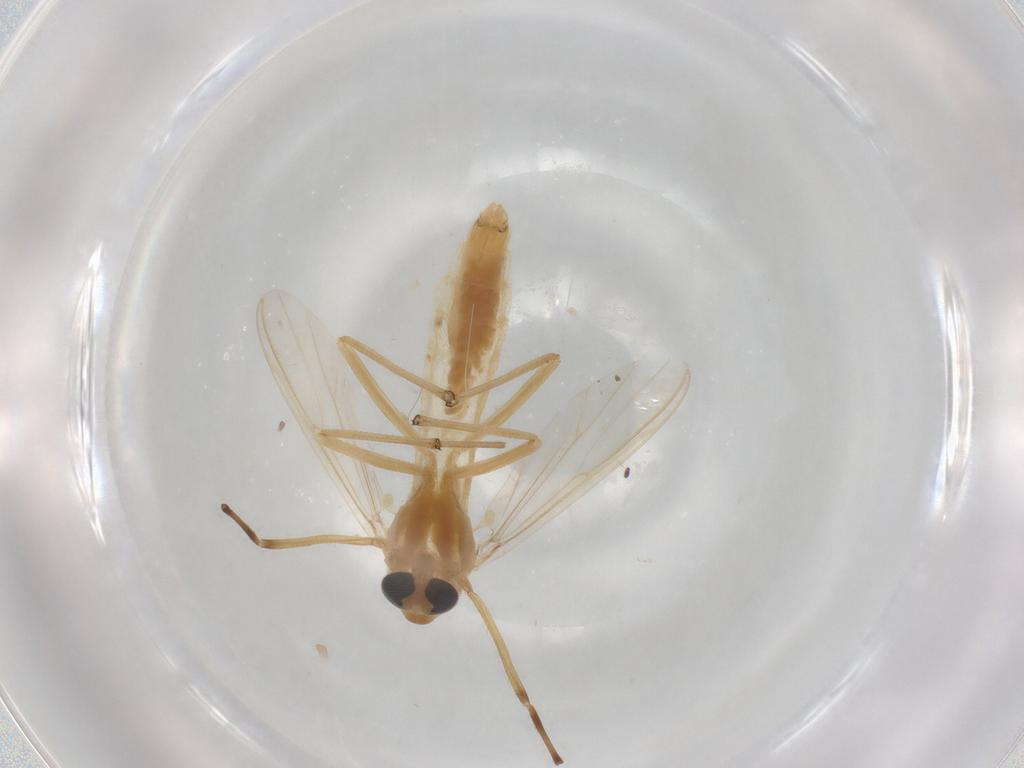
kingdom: Animalia
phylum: Arthropoda
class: Insecta
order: Diptera
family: Chironomidae
